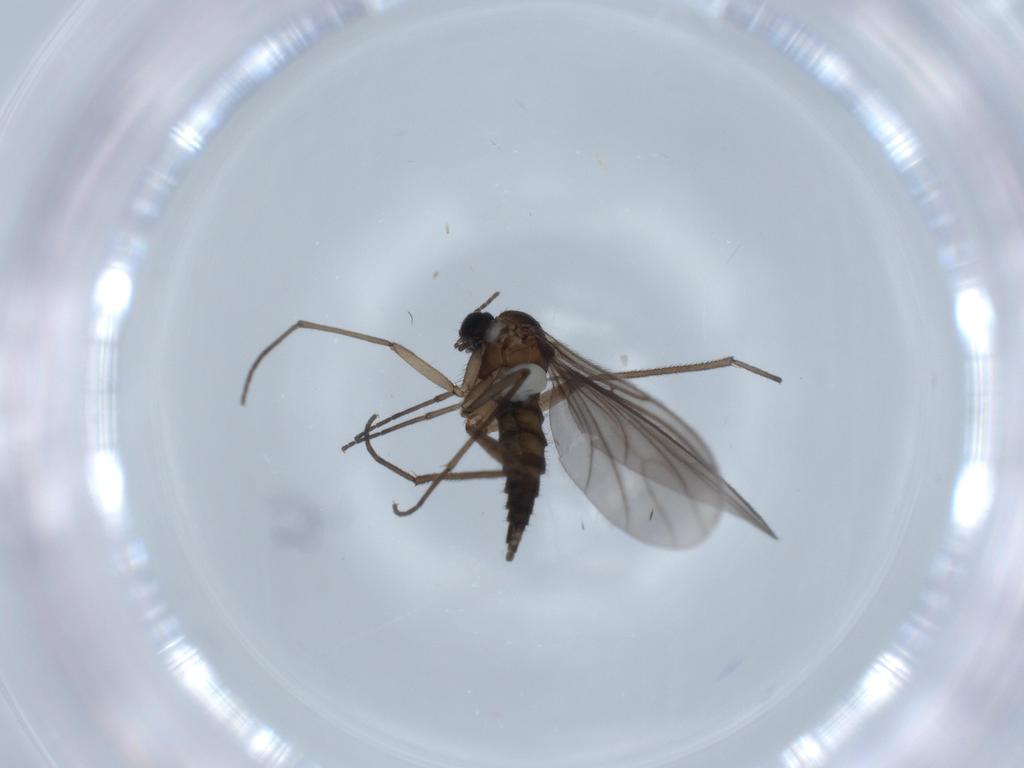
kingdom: Animalia
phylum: Arthropoda
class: Insecta
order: Diptera
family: Sciaridae
